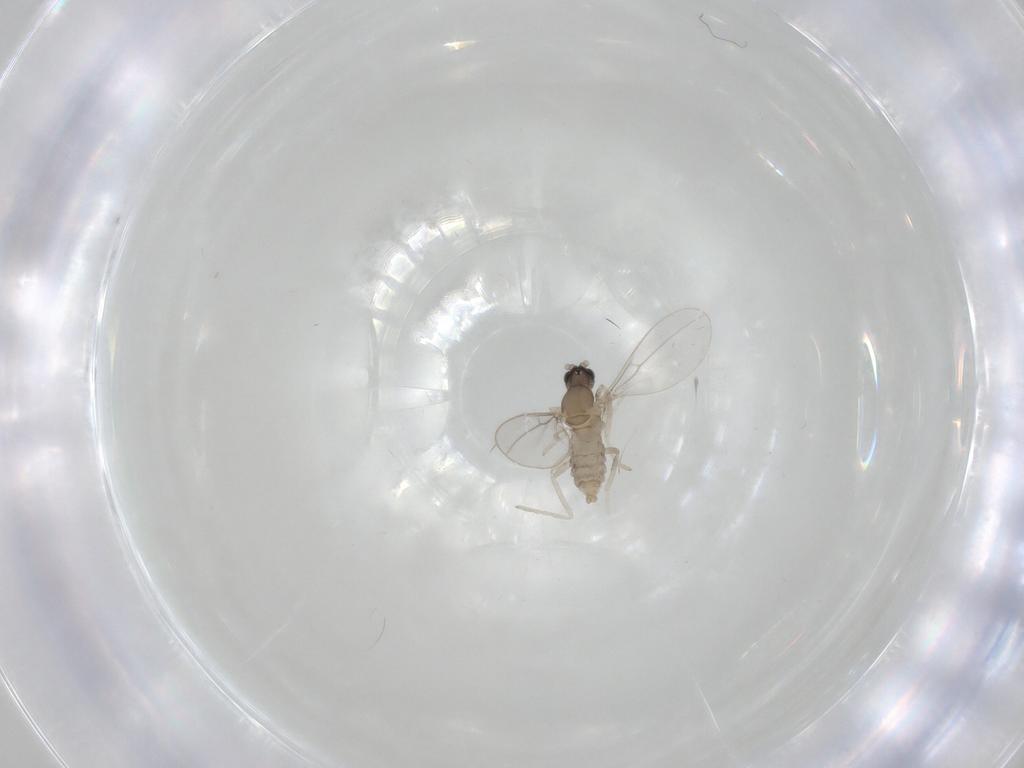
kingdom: Animalia
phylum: Arthropoda
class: Insecta
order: Diptera
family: Cecidomyiidae
